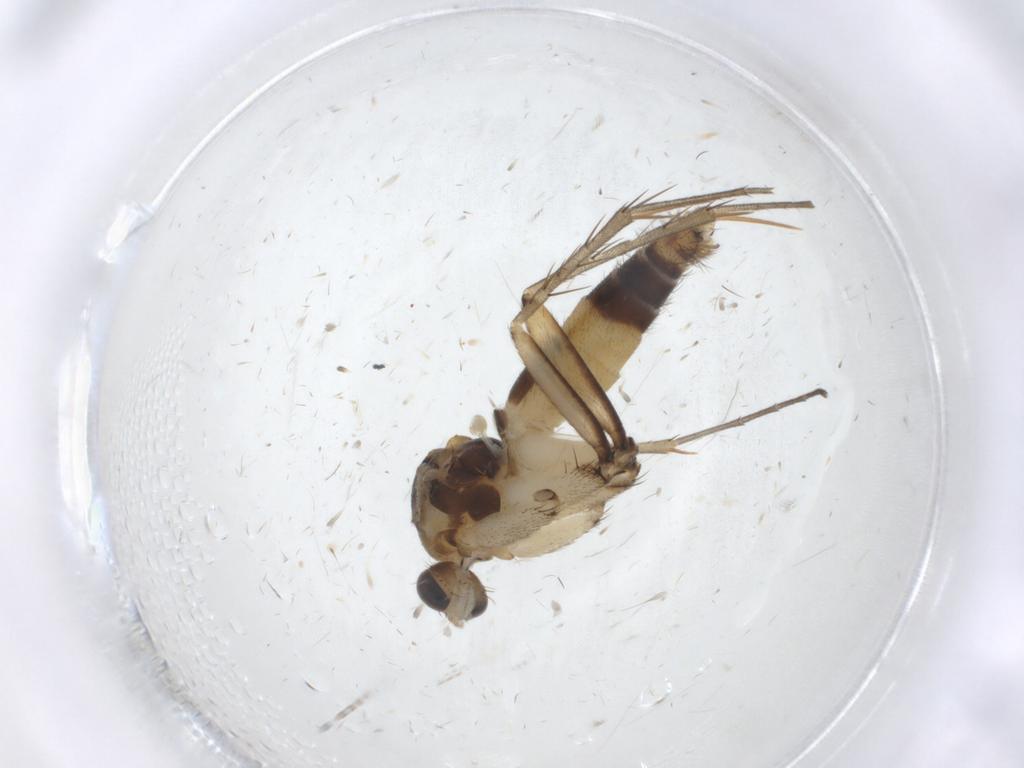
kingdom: Animalia
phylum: Arthropoda
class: Insecta
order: Diptera
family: Mycetophilidae
